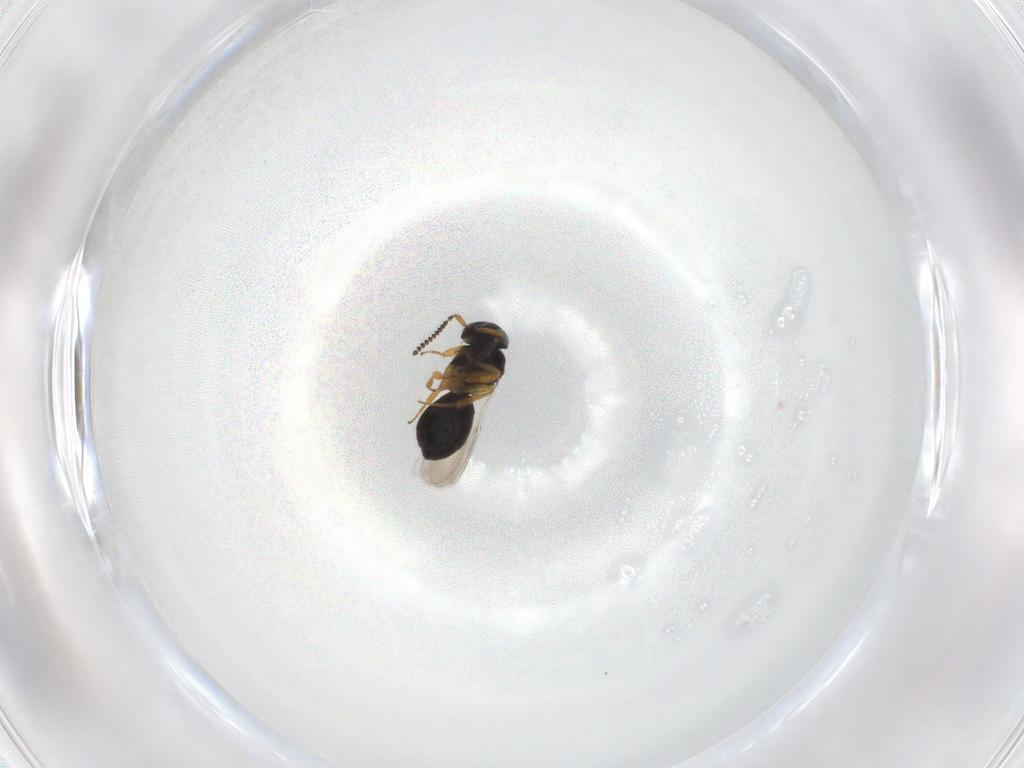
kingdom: Animalia
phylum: Arthropoda
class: Insecta
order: Hymenoptera
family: Scelionidae
